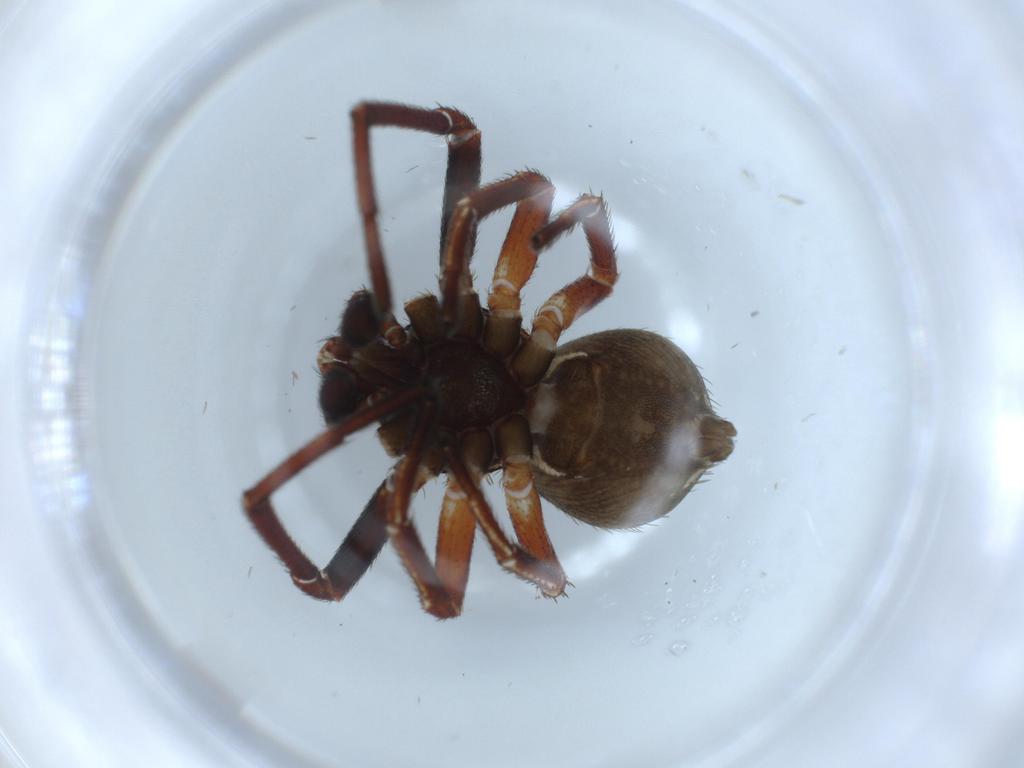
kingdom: Animalia
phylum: Arthropoda
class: Arachnida
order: Araneae
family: Thomisidae
